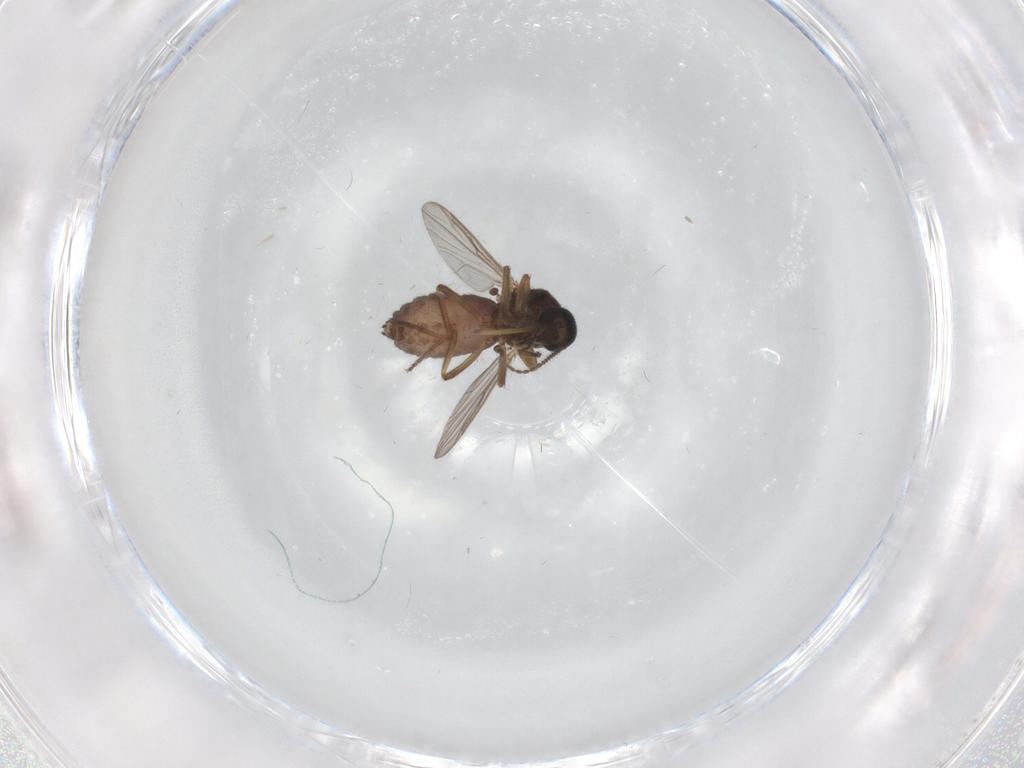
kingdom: Animalia
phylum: Arthropoda
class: Insecta
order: Diptera
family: Ceratopogonidae
